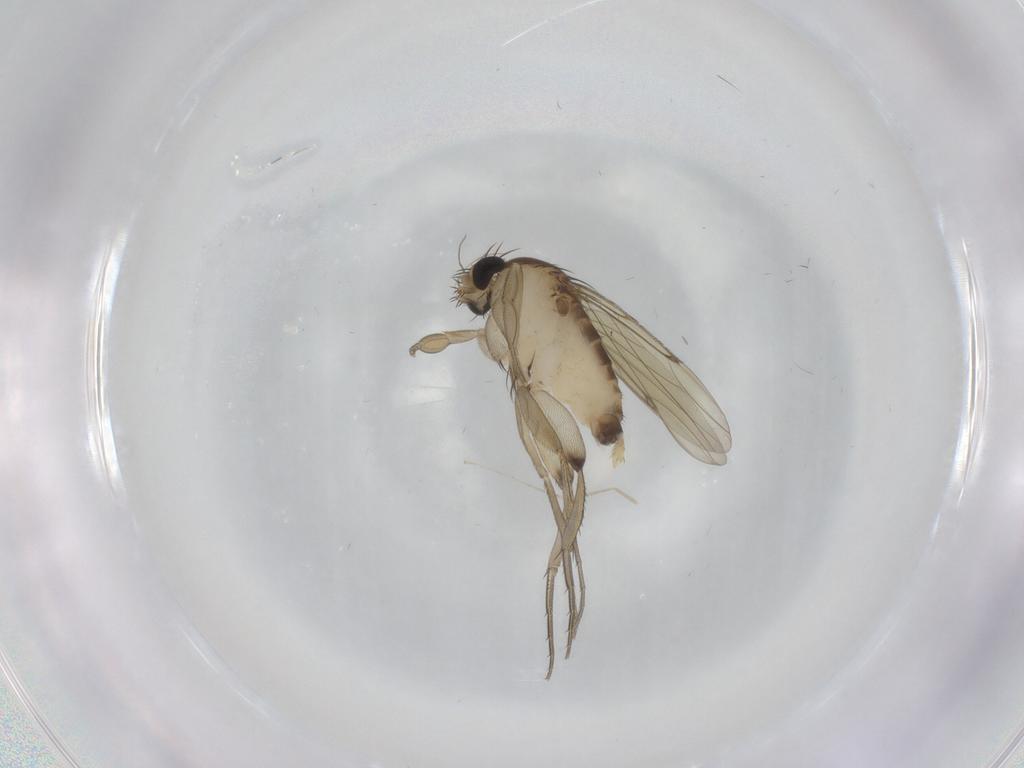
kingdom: Animalia
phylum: Arthropoda
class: Insecta
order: Diptera
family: Phoridae
